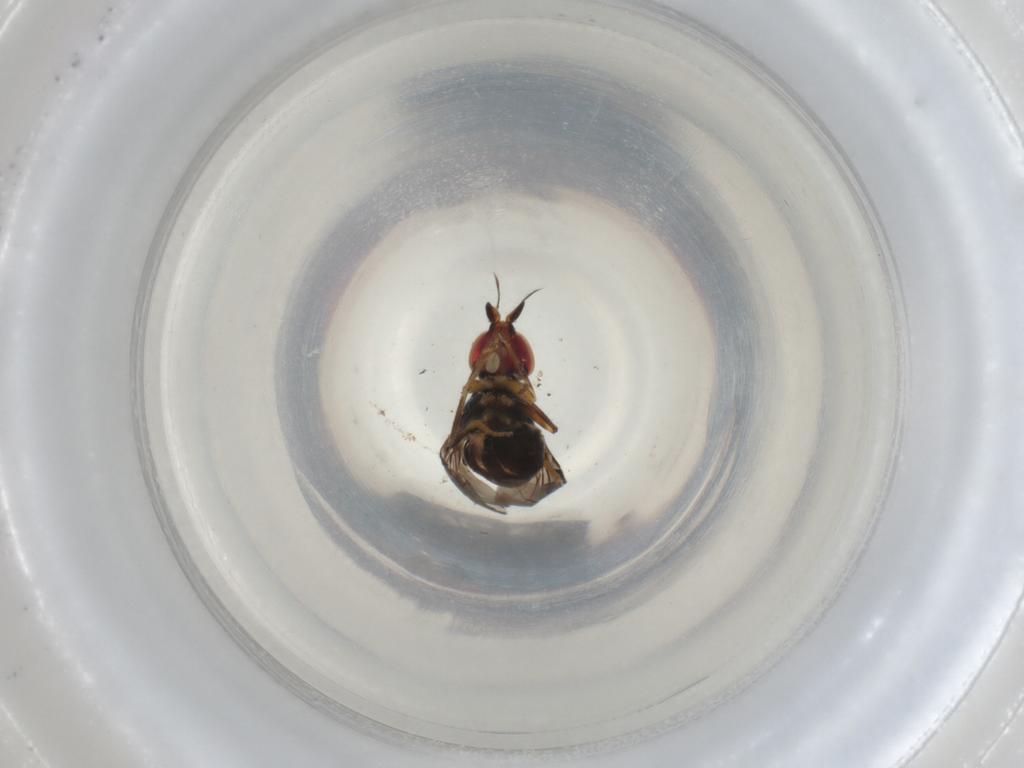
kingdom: Animalia
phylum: Arthropoda
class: Insecta
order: Diptera
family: Chloropidae
